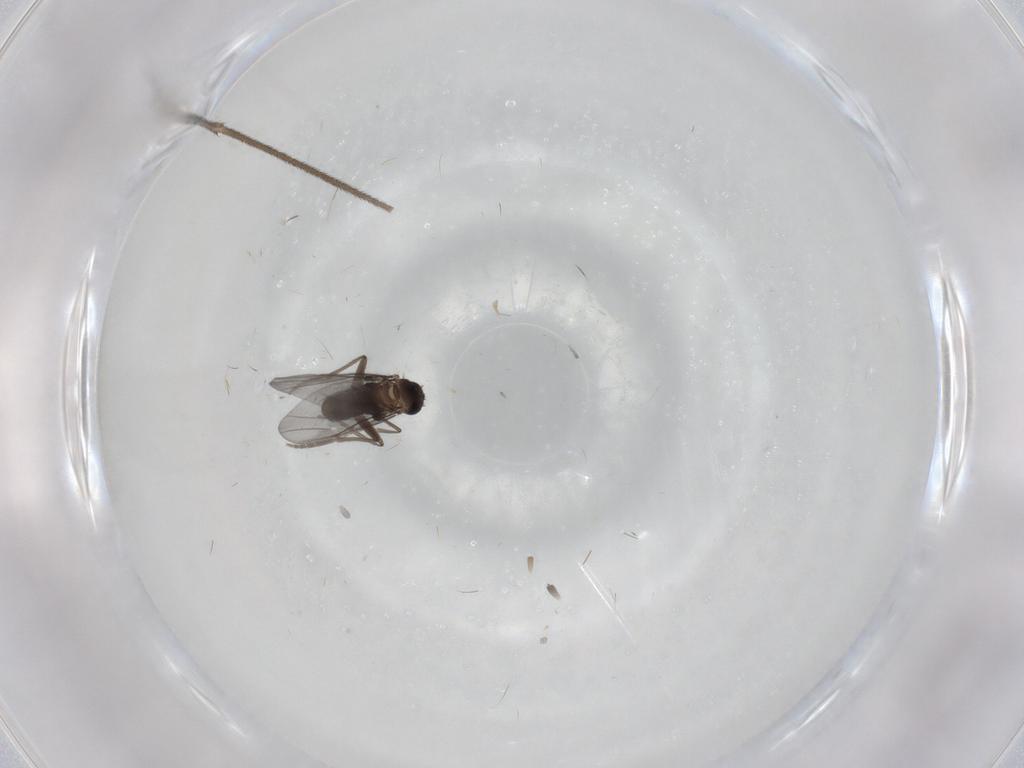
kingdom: Animalia
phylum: Arthropoda
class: Insecta
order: Diptera
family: Limoniidae
